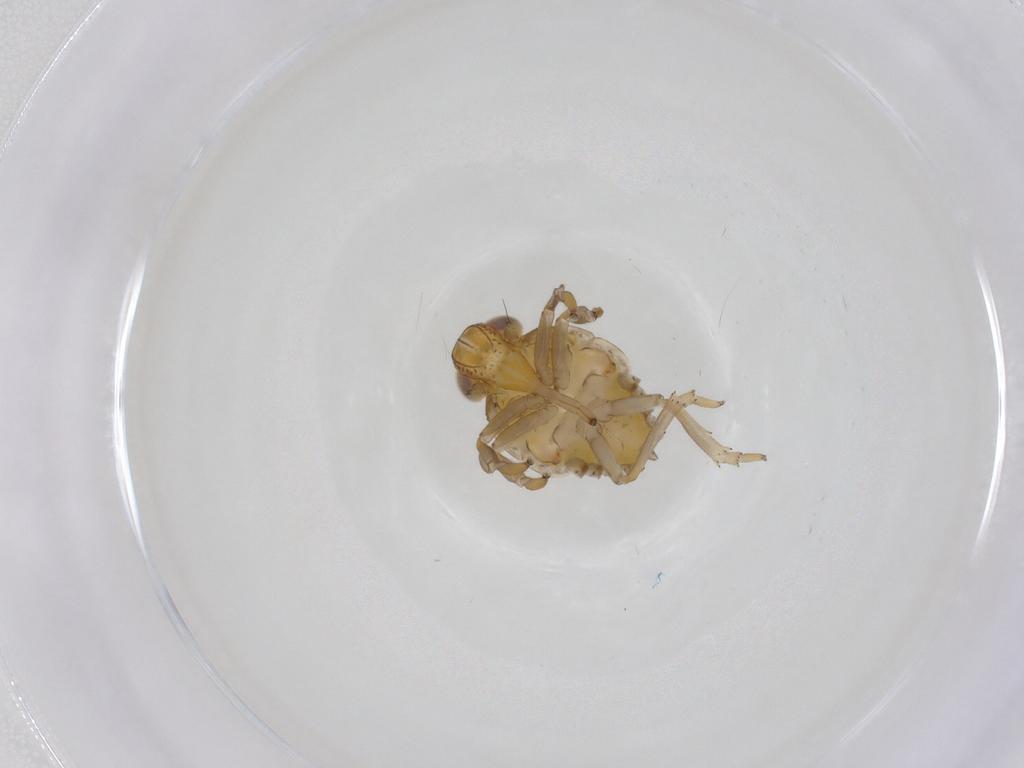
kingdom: Animalia
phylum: Arthropoda
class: Insecta
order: Hemiptera
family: Issidae
